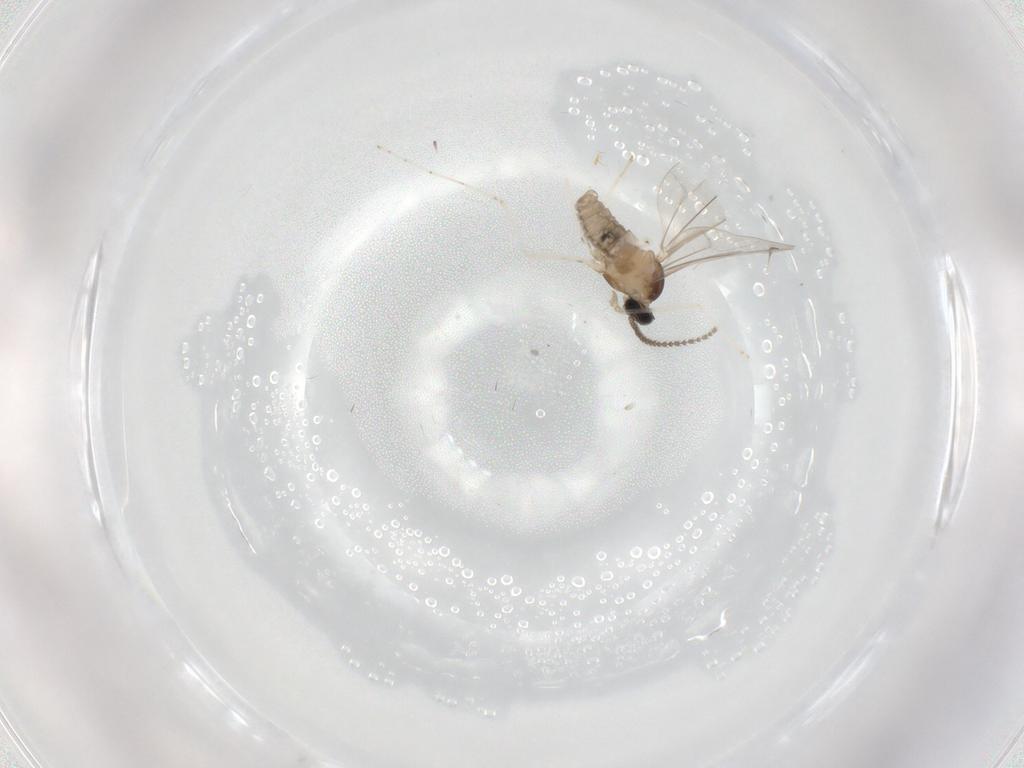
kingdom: Animalia
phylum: Arthropoda
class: Insecta
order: Diptera
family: Cecidomyiidae
